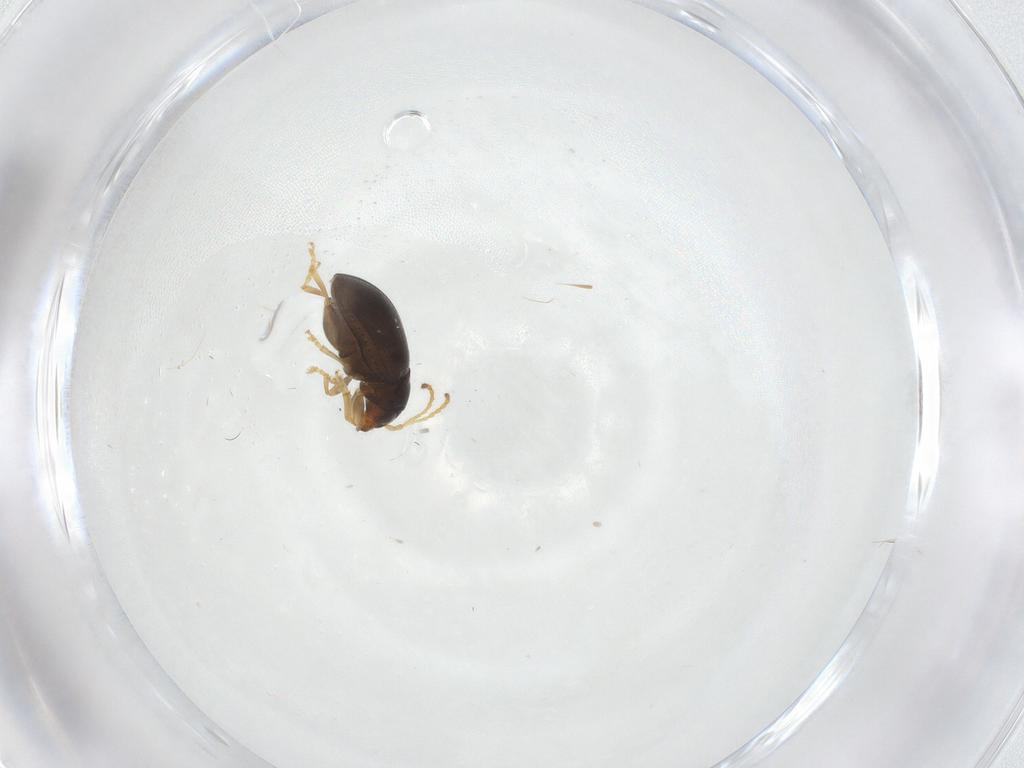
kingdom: Animalia
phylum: Arthropoda
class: Insecta
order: Coleoptera
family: Chrysomelidae
